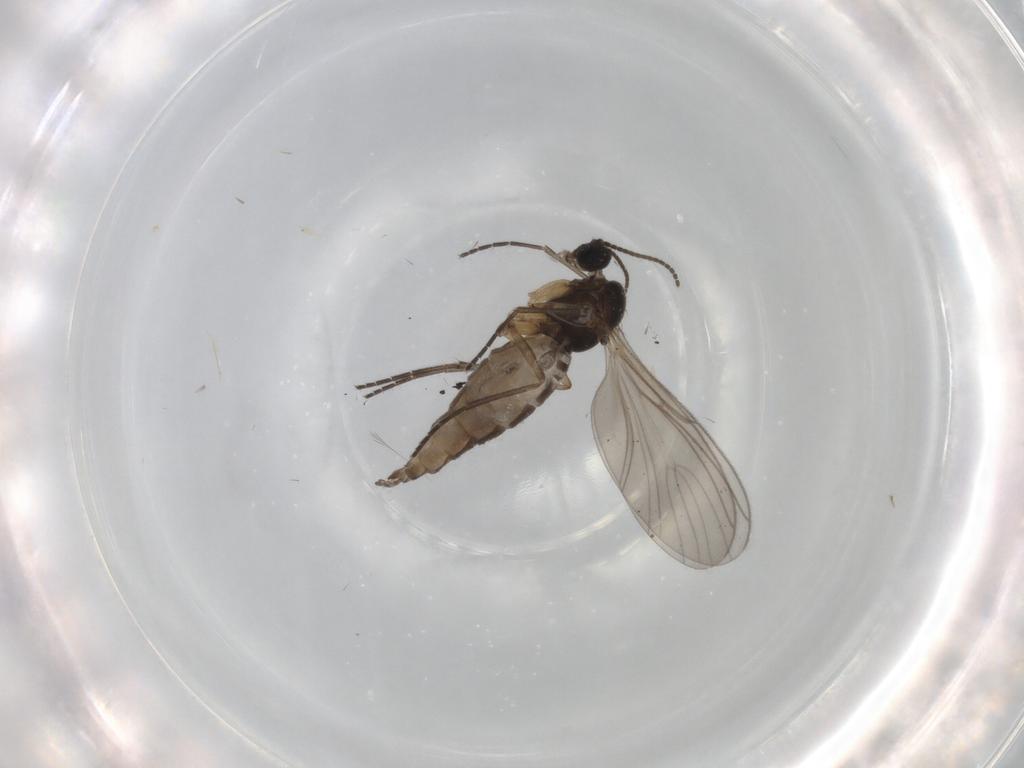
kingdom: Animalia
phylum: Arthropoda
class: Insecta
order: Diptera
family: Sciaridae
